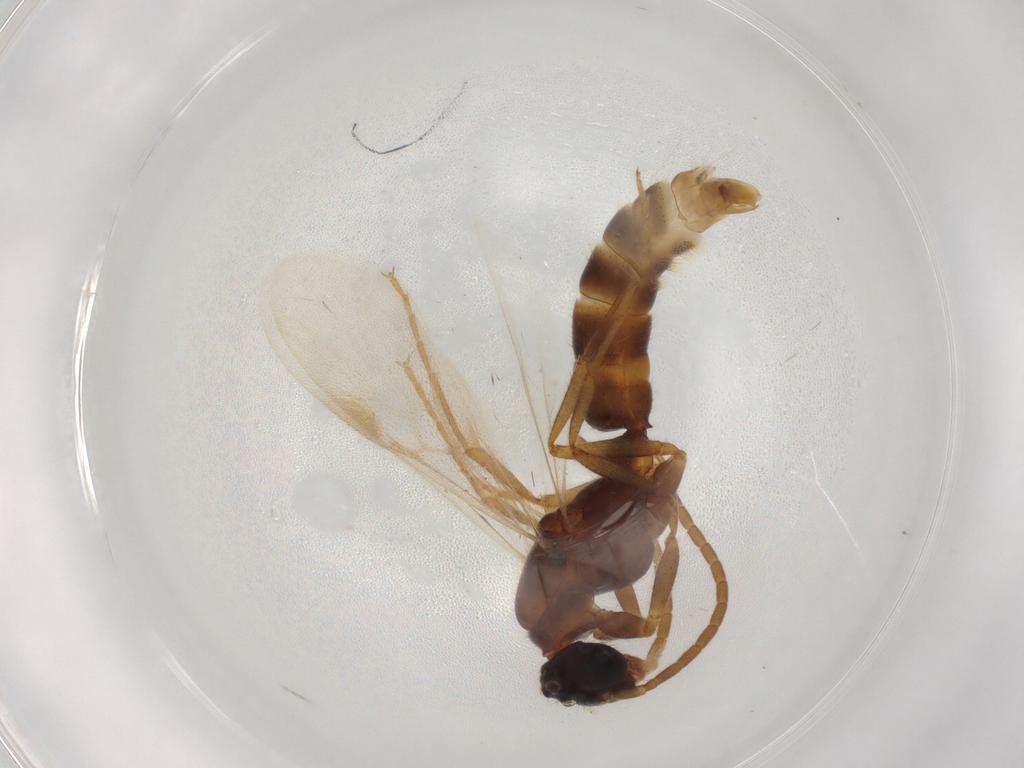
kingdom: Animalia
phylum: Arthropoda
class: Insecta
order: Hymenoptera
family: Formicidae
